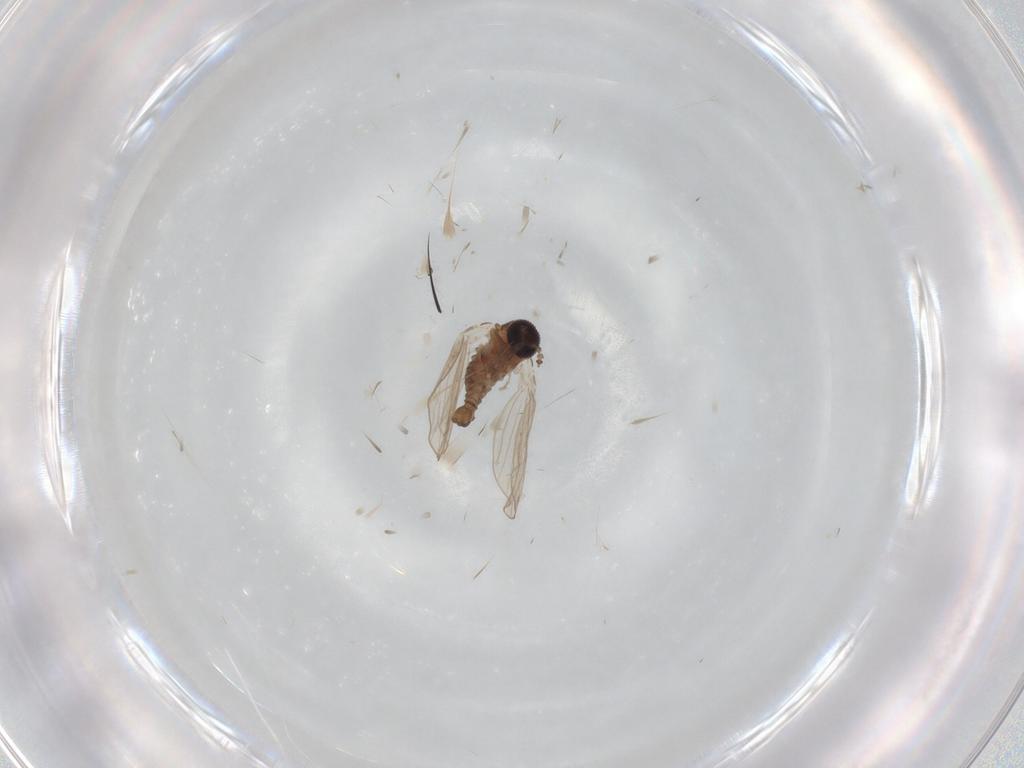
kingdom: Animalia
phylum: Arthropoda
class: Insecta
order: Diptera
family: Psychodidae
